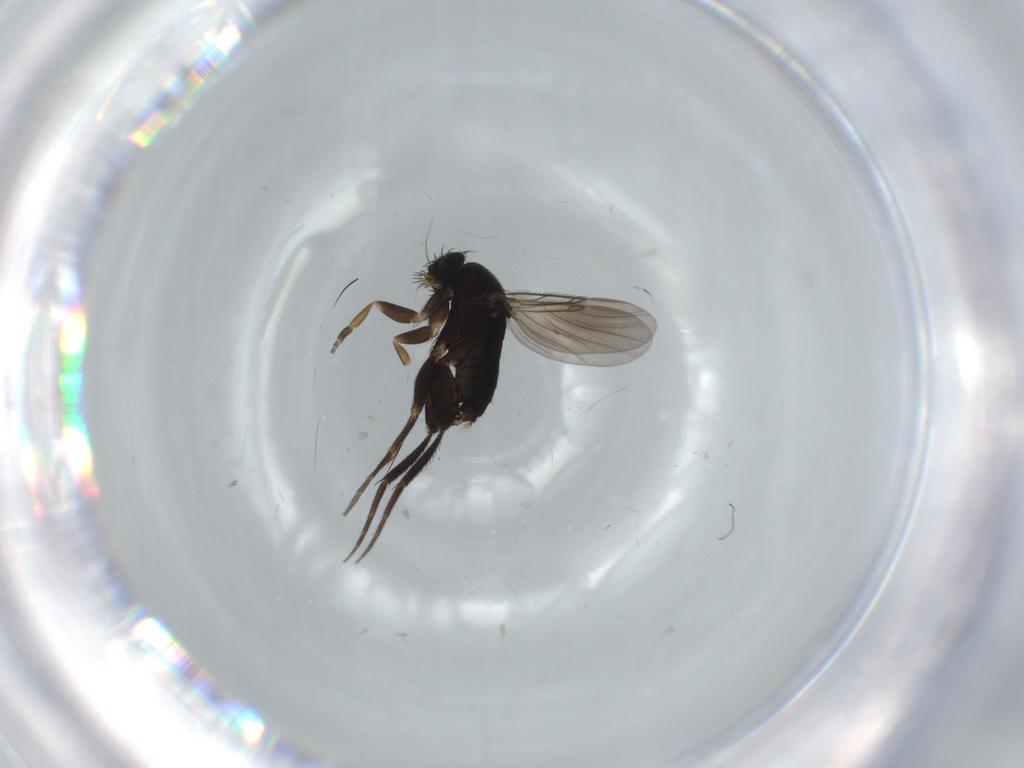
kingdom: Animalia
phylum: Arthropoda
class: Insecta
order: Diptera
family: Phoridae
